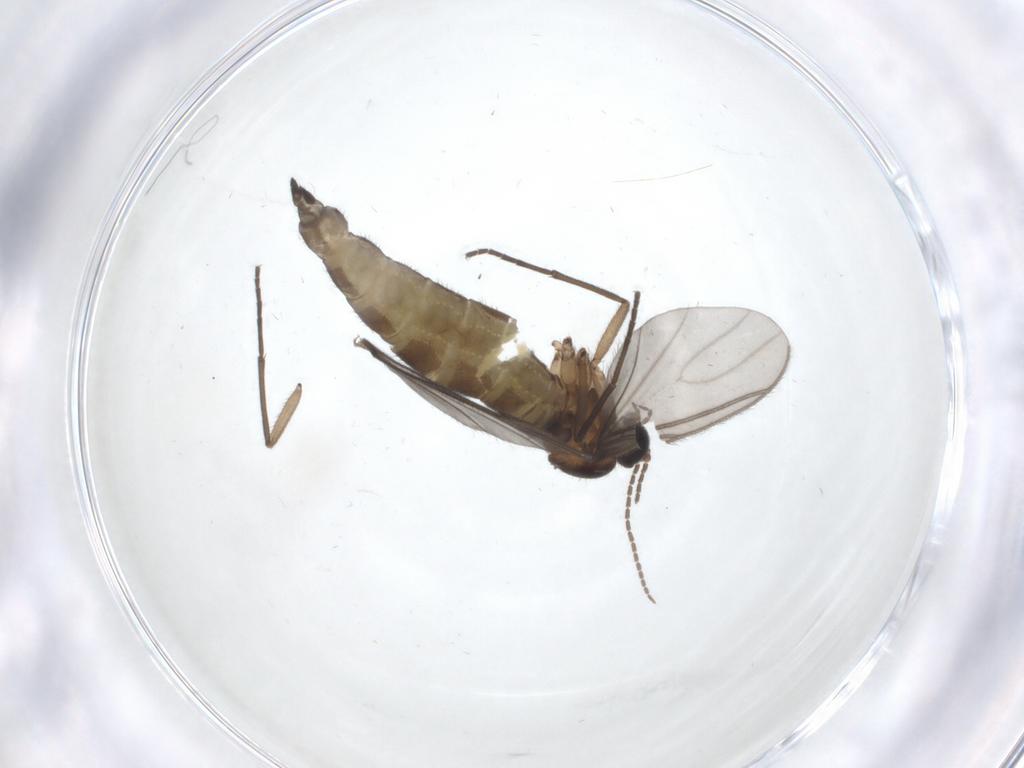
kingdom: Animalia
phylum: Arthropoda
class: Insecta
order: Diptera
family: Sciaridae
